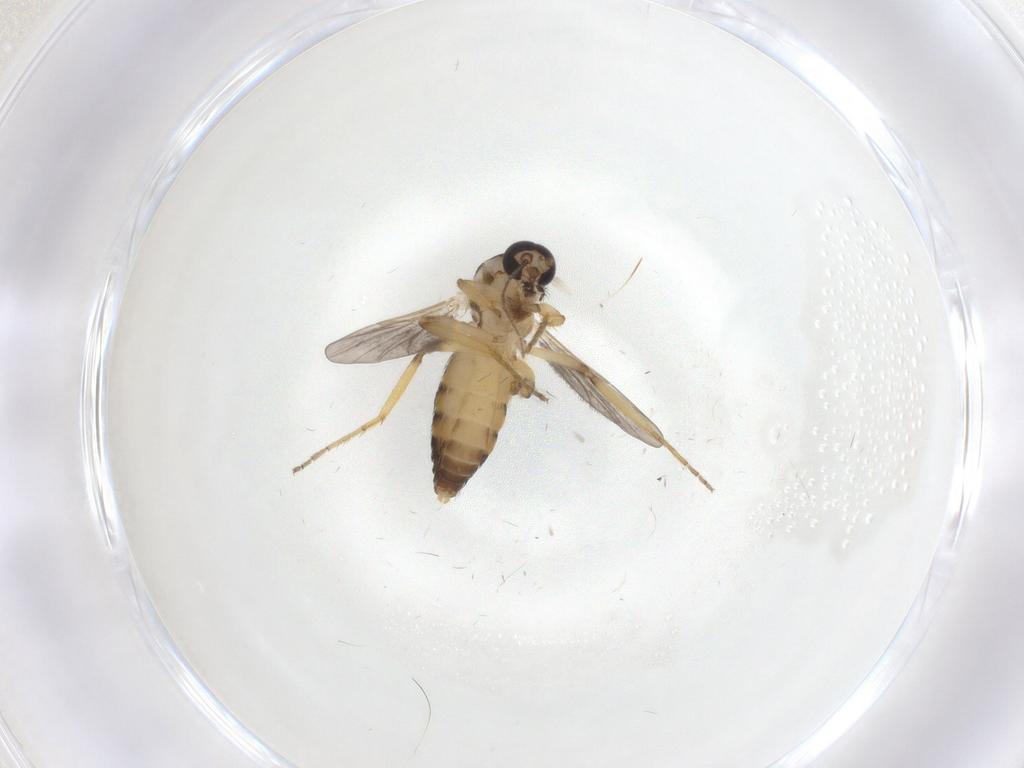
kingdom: Animalia
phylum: Arthropoda
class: Insecta
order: Diptera
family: Ceratopogonidae
